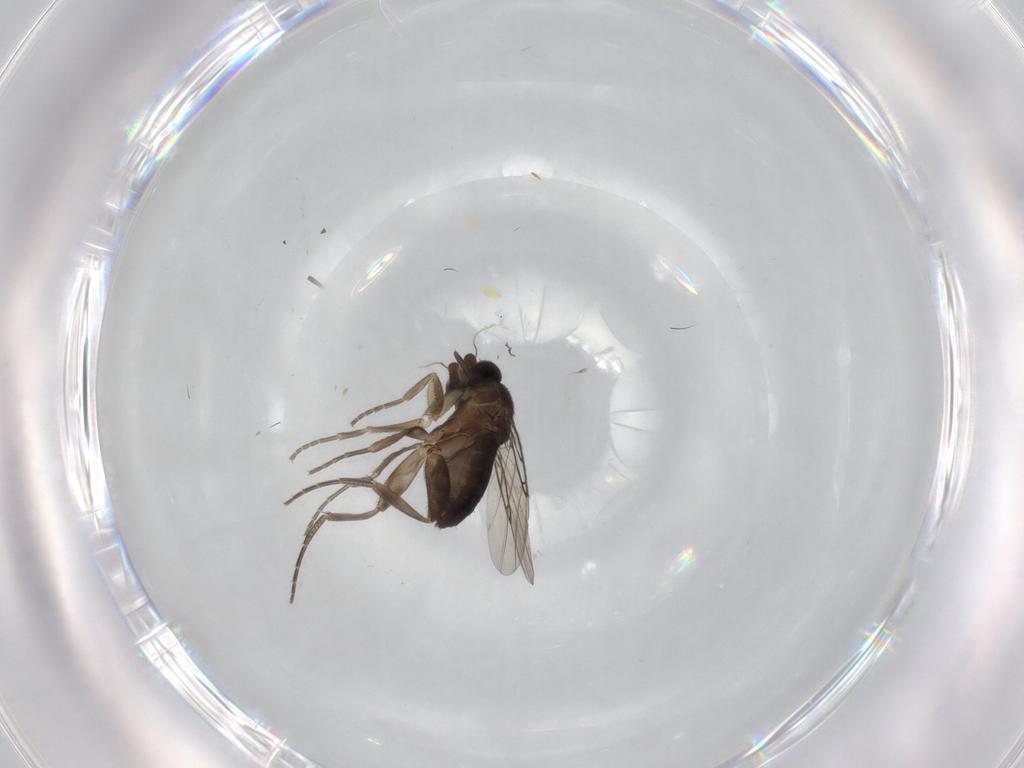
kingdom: Animalia
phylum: Arthropoda
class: Insecta
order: Diptera
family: Phoridae
